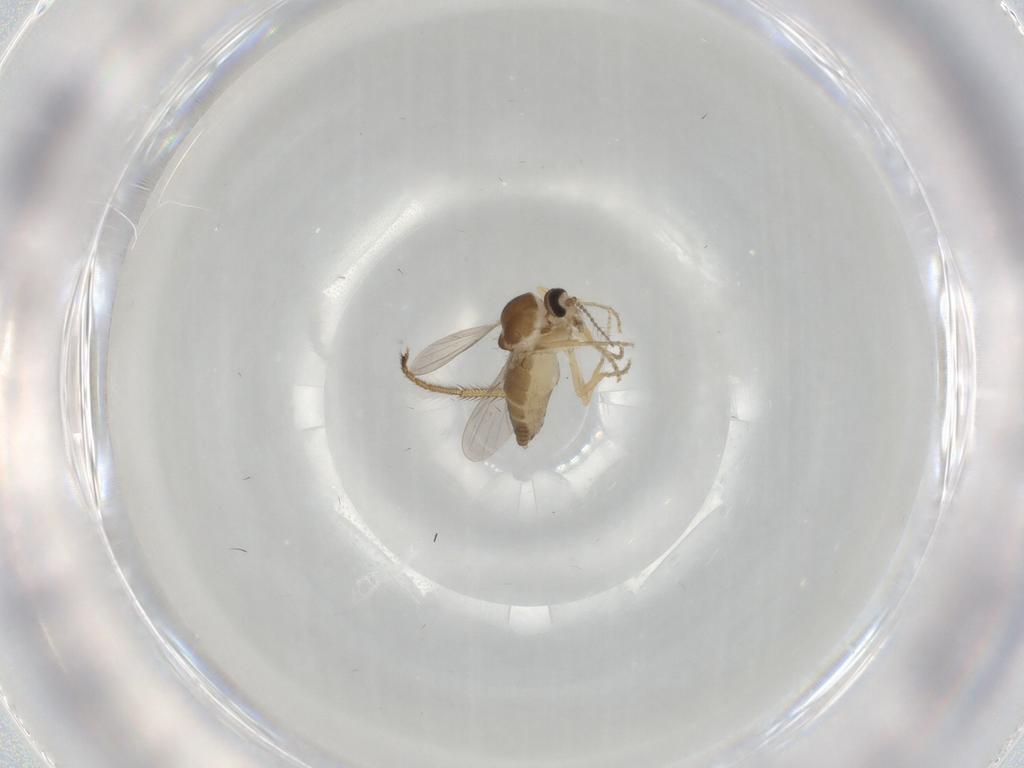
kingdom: Animalia
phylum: Arthropoda
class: Insecta
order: Diptera
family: Ceratopogonidae
